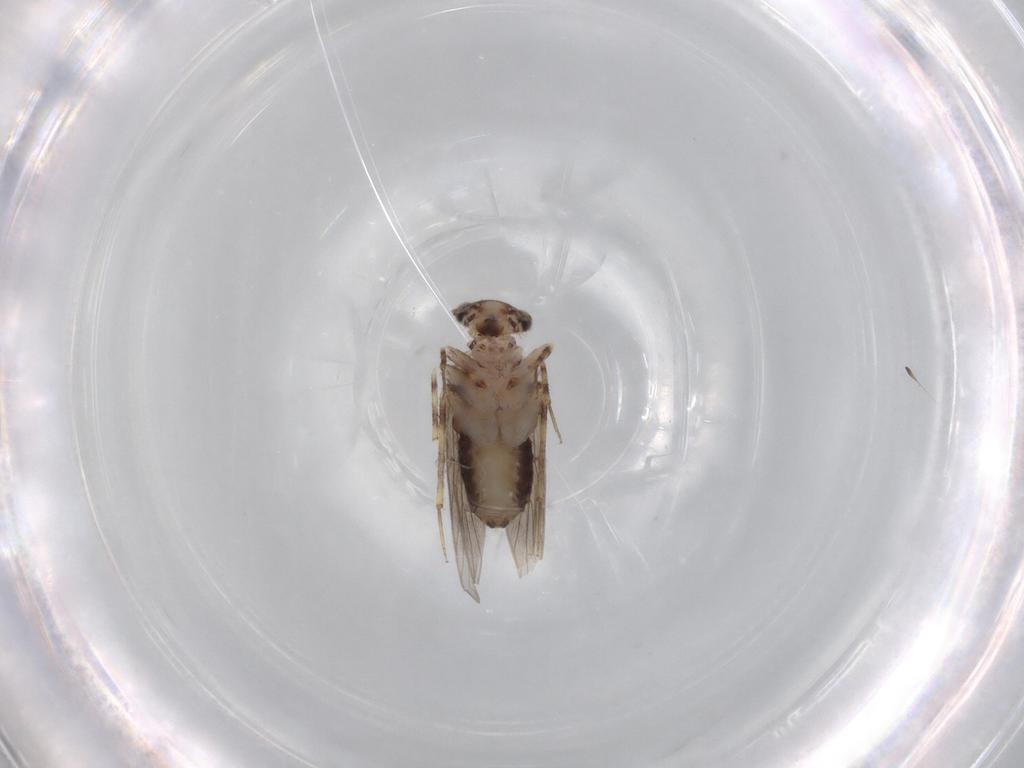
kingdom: Animalia
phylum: Arthropoda
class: Insecta
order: Psocodea
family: Lepidopsocidae
